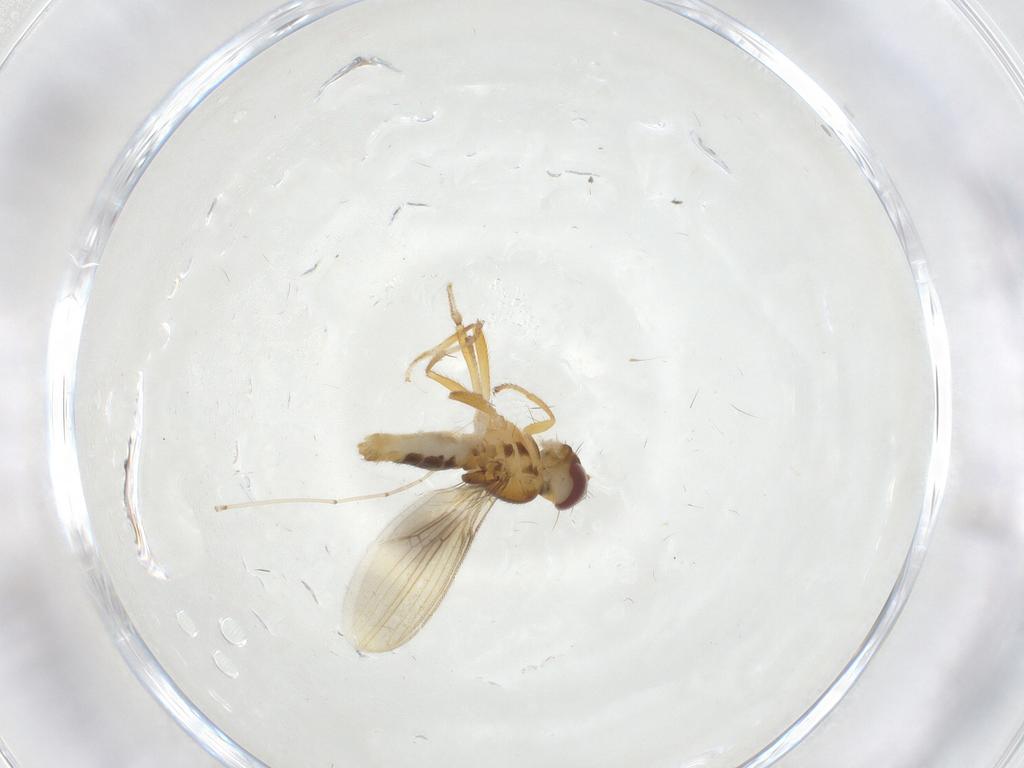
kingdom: Animalia
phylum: Arthropoda
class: Insecta
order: Diptera
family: Periscelididae
